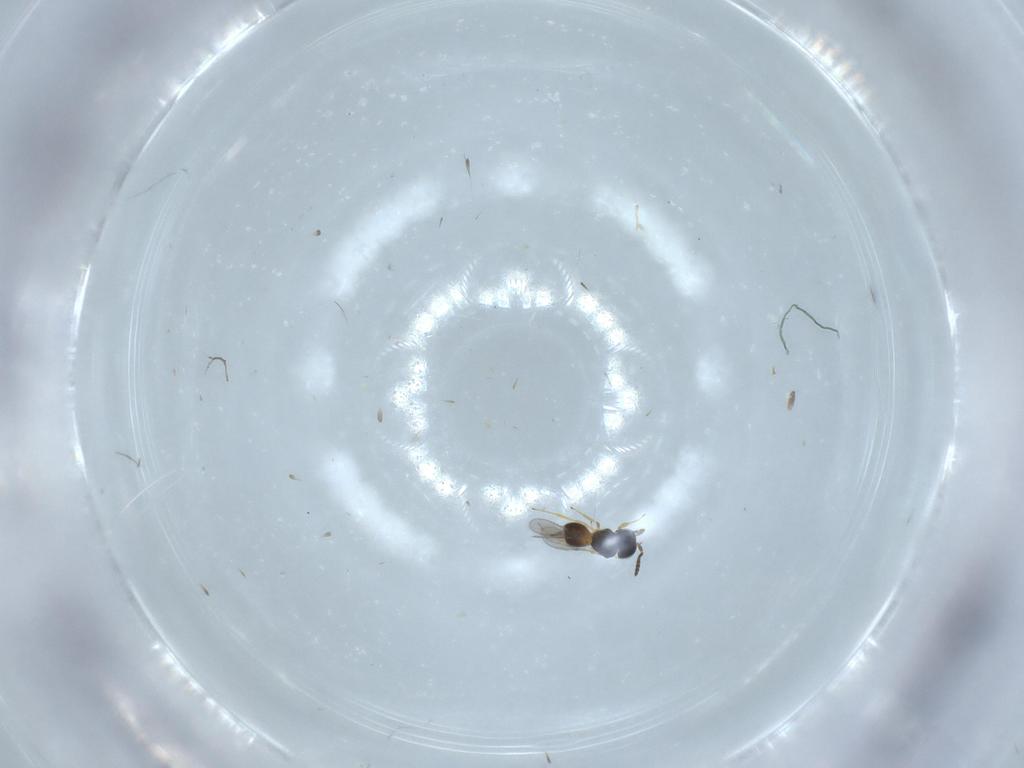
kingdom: Animalia
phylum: Arthropoda
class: Insecta
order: Hymenoptera
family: Scelionidae
